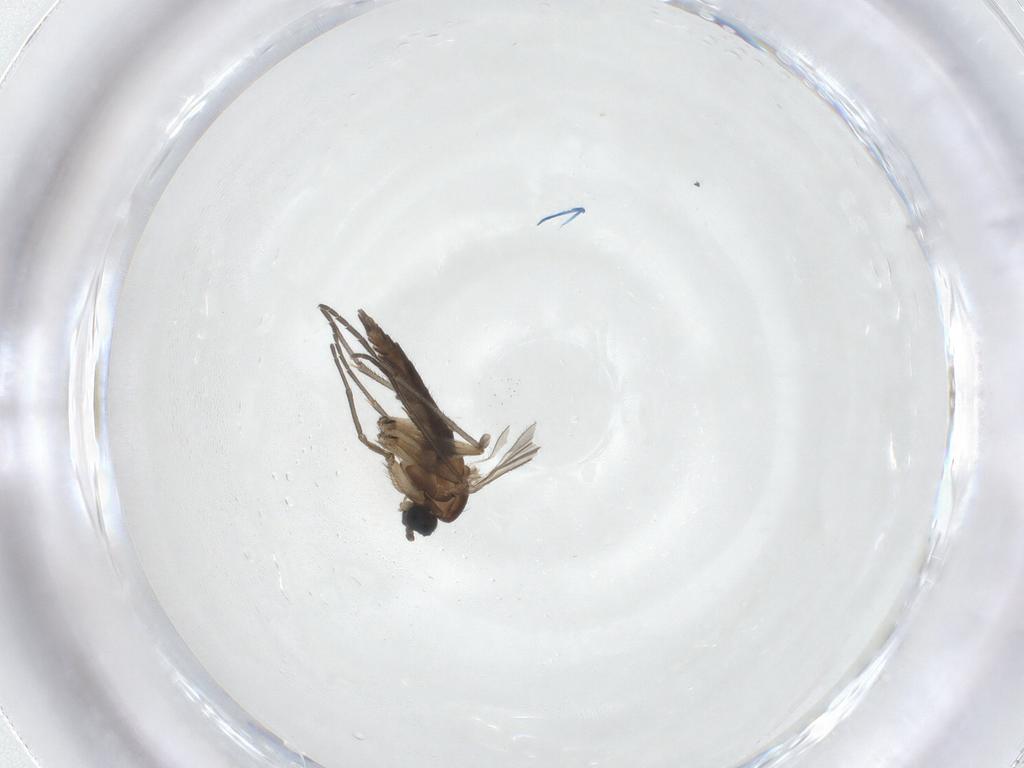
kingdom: Animalia
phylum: Arthropoda
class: Insecta
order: Diptera
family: Sciaridae
